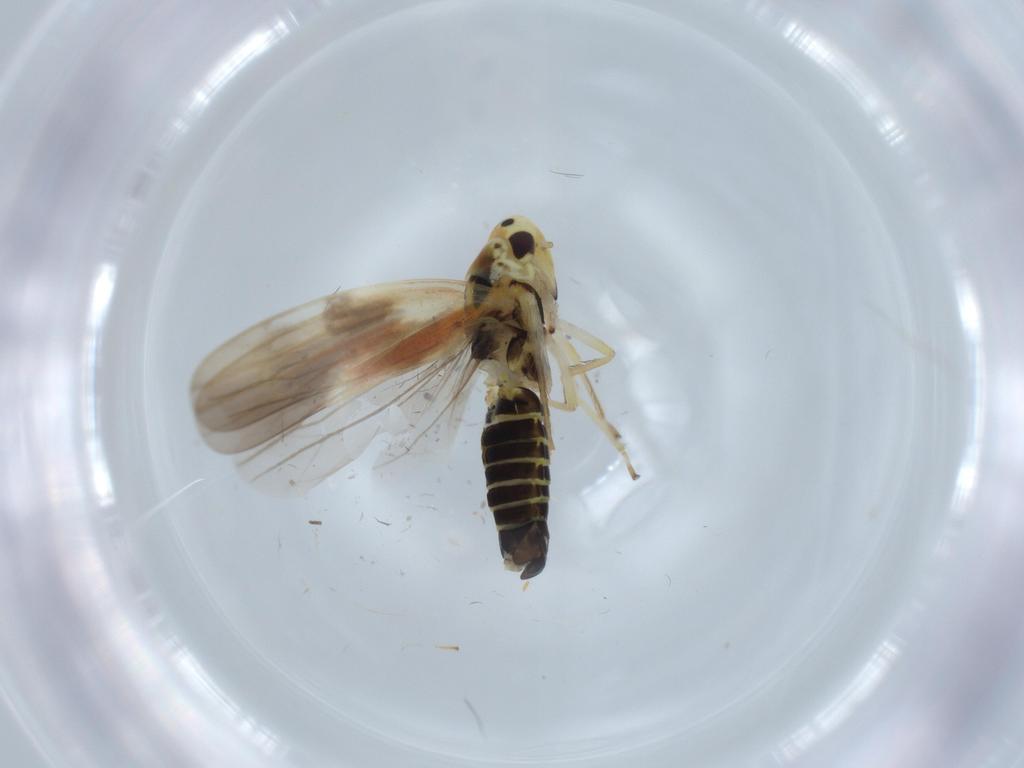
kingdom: Animalia
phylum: Arthropoda
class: Insecta
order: Hemiptera
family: Cicadellidae
